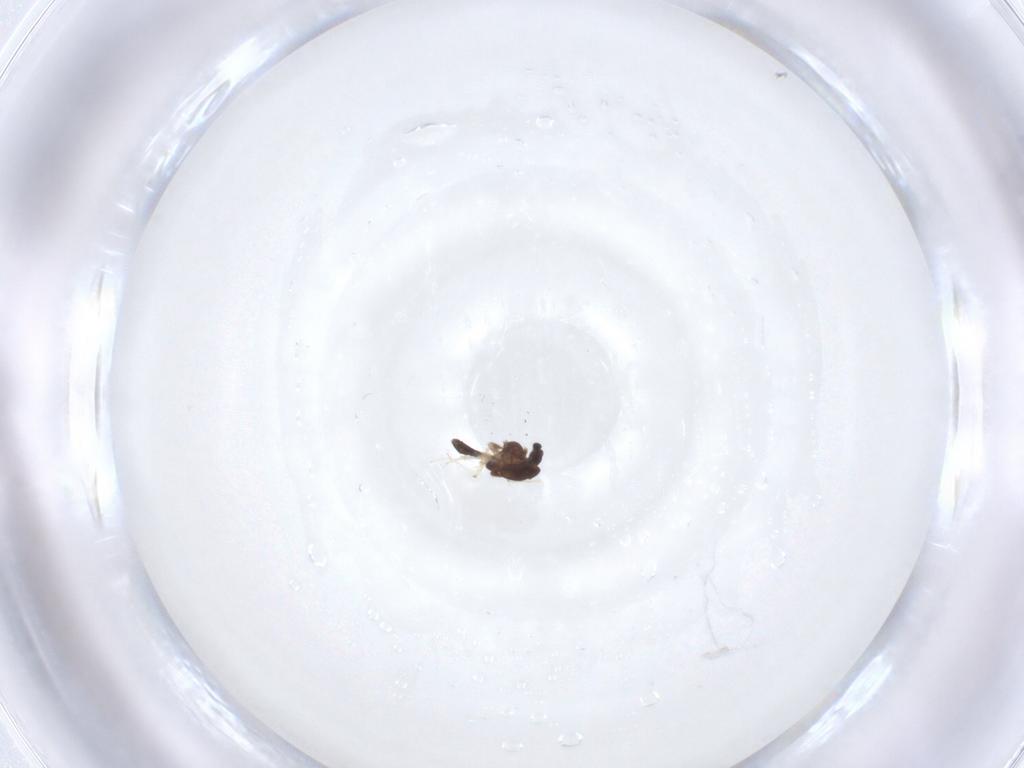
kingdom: Animalia
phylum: Arthropoda
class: Insecta
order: Diptera
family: Chironomidae
